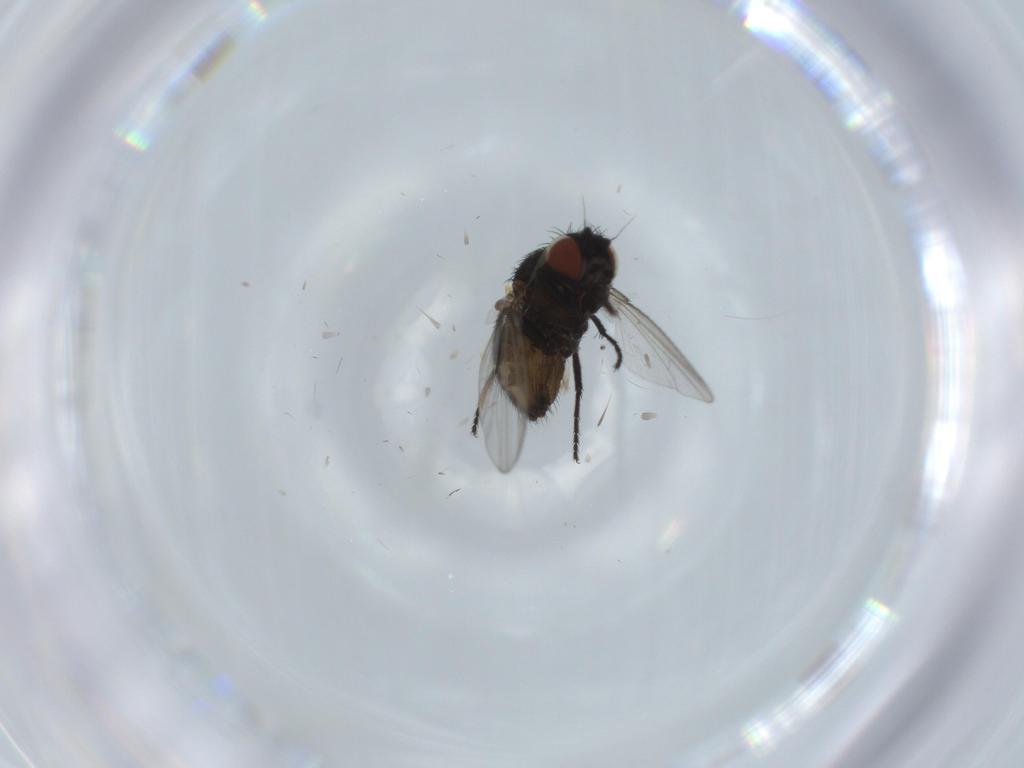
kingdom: Animalia
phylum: Arthropoda
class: Insecta
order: Diptera
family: Milichiidae
